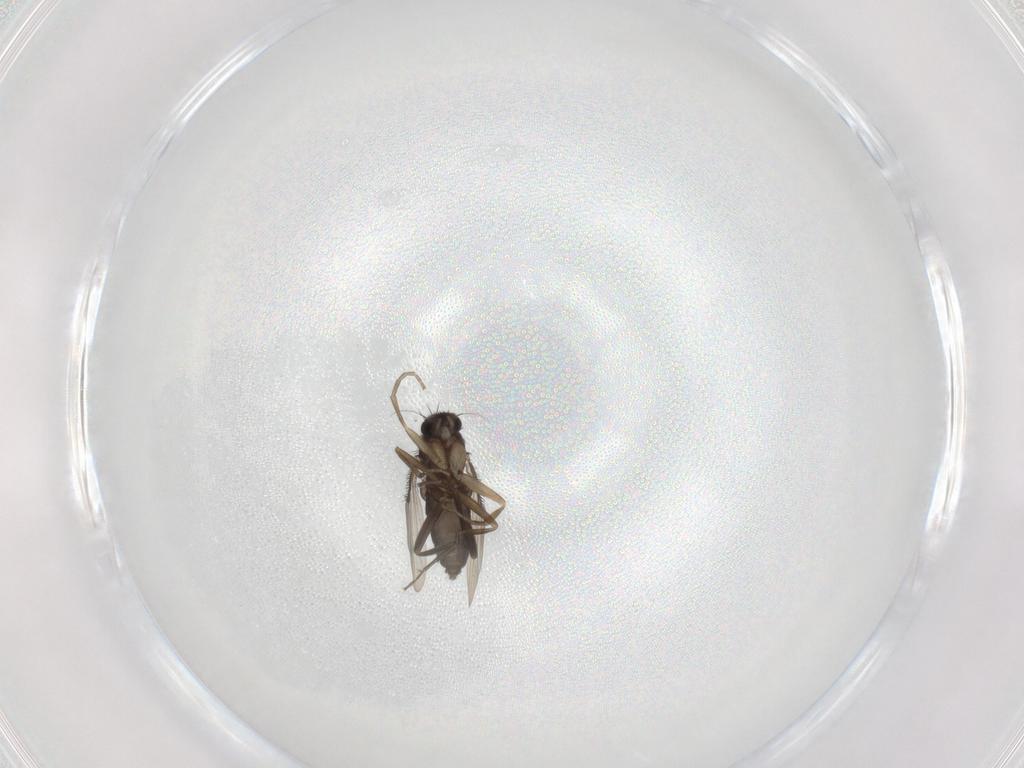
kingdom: Animalia
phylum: Arthropoda
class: Insecta
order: Diptera
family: Phoridae
